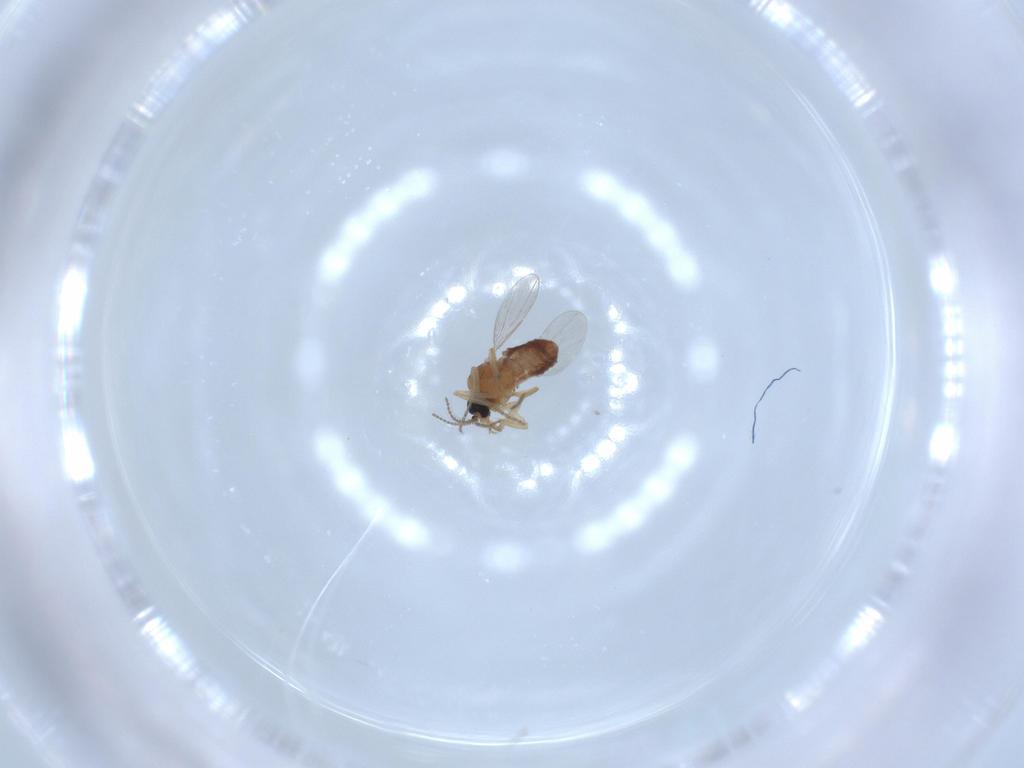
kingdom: Animalia
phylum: Arthropoda
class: Insecta
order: Diptera
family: Ceratopogonidae
